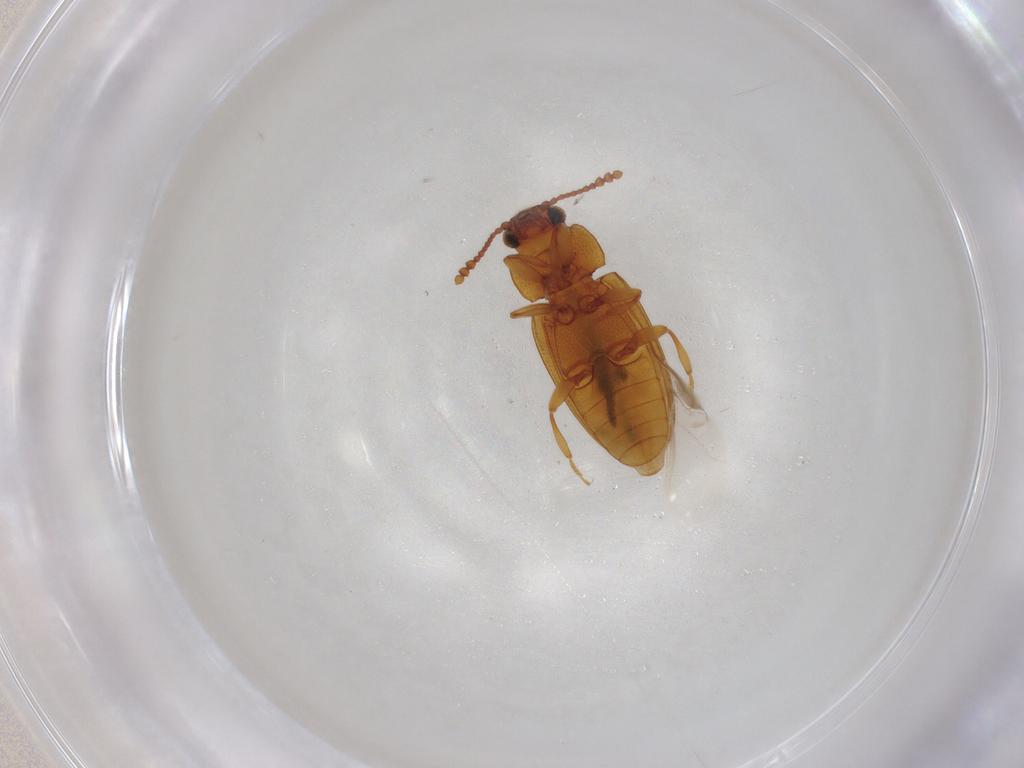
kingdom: Animalia
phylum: Arthropoda
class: Insecta
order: Coleoptera
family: Erotylidae
